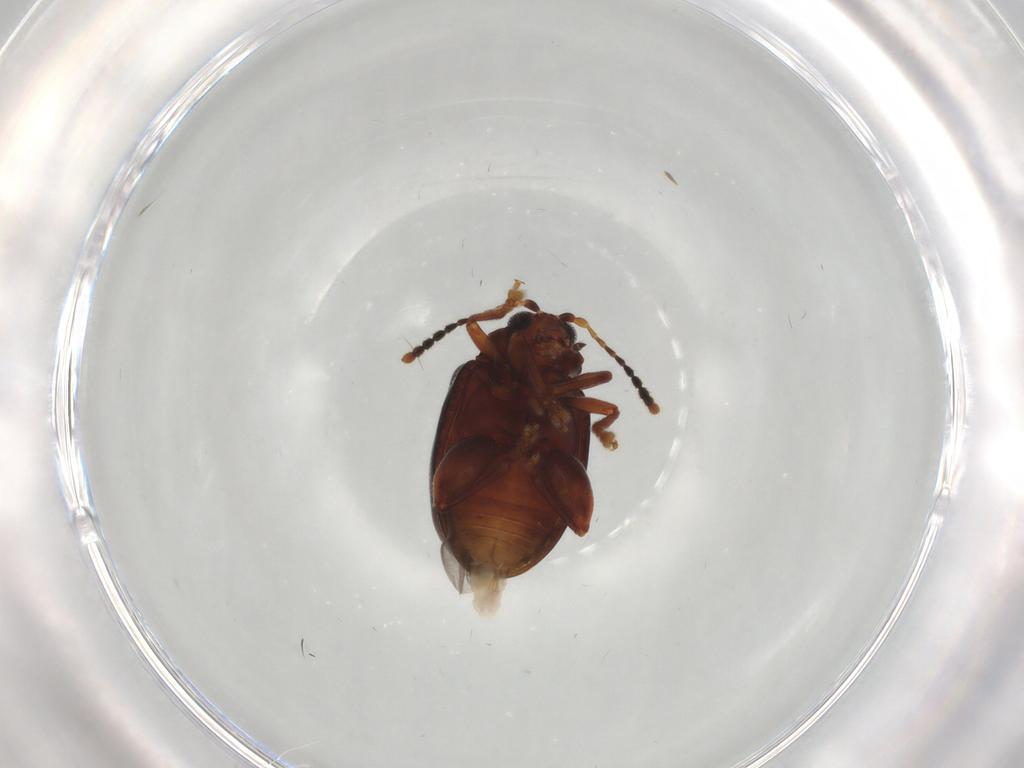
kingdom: Animalia
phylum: Arthropoda
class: Insecta
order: Coleoptera
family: Chrysomelidae
